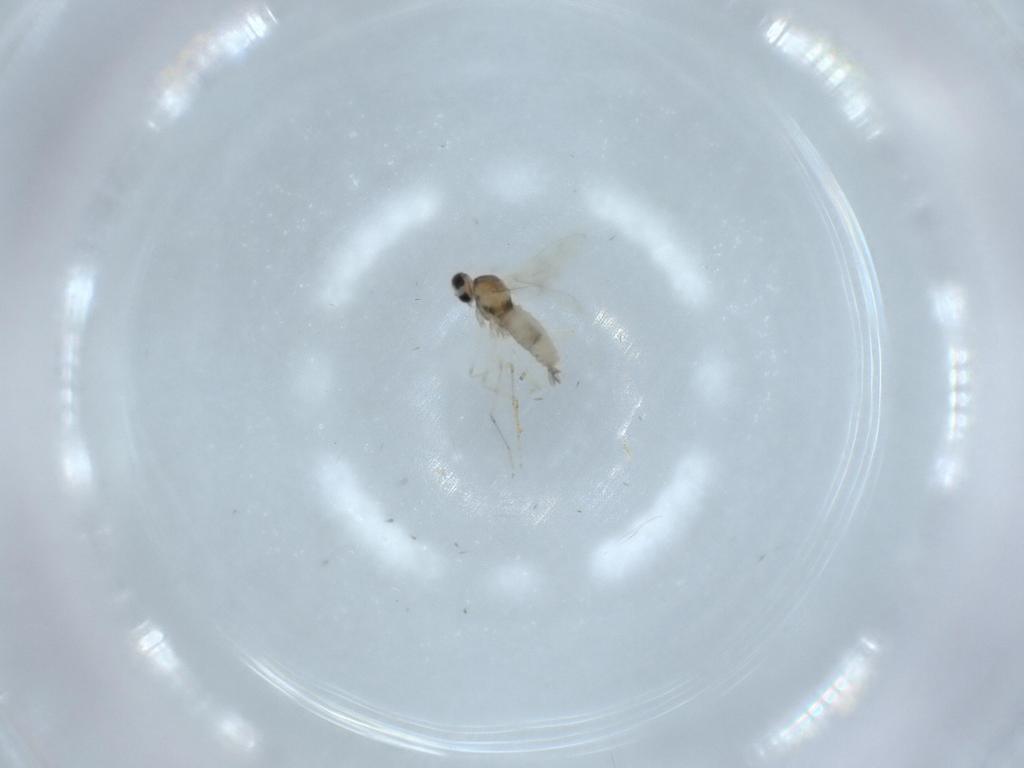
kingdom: Animalia
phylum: Arthropoda
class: Insecta
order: Diptera
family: Cecidomyiidae
